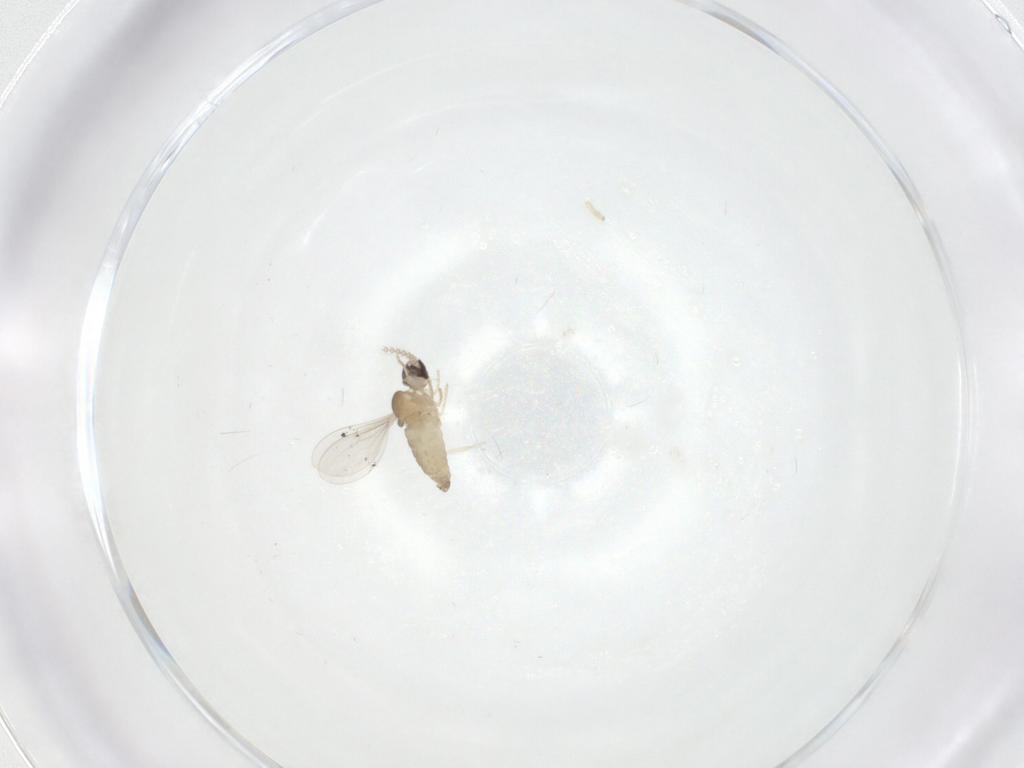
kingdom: Animalia
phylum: Arthropoda
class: Insecta
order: Diptera
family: Cecidomyiidae
